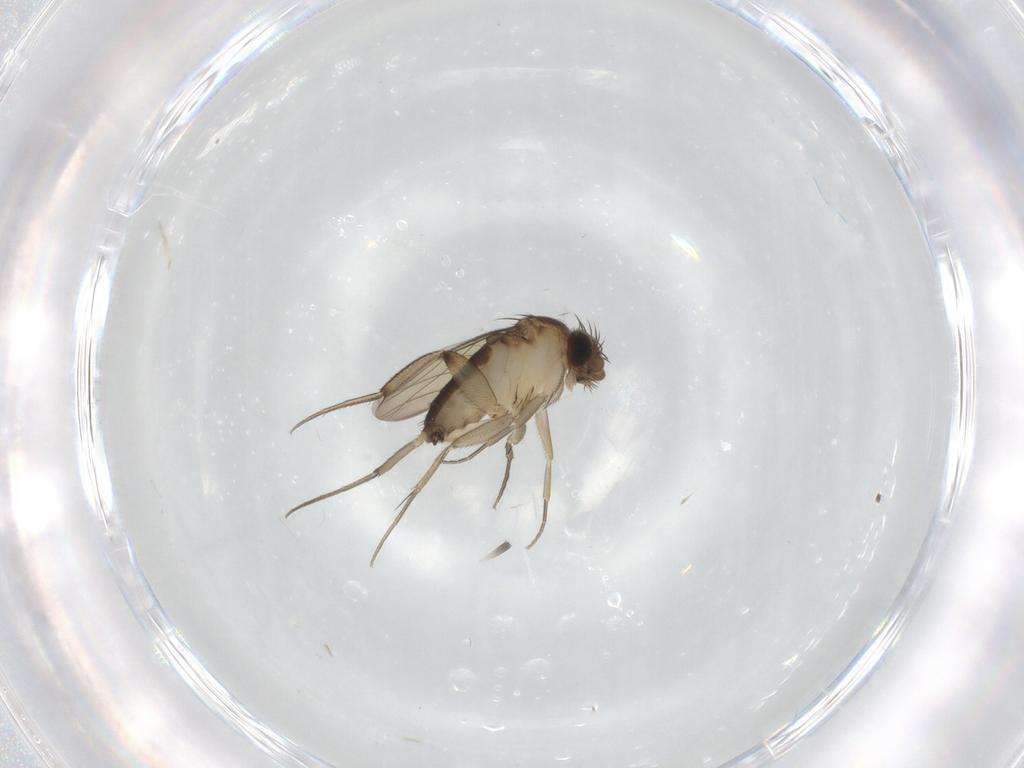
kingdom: Animalia
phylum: Arthropoda
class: Insecta
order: Diptera
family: Cecidomyiidae
